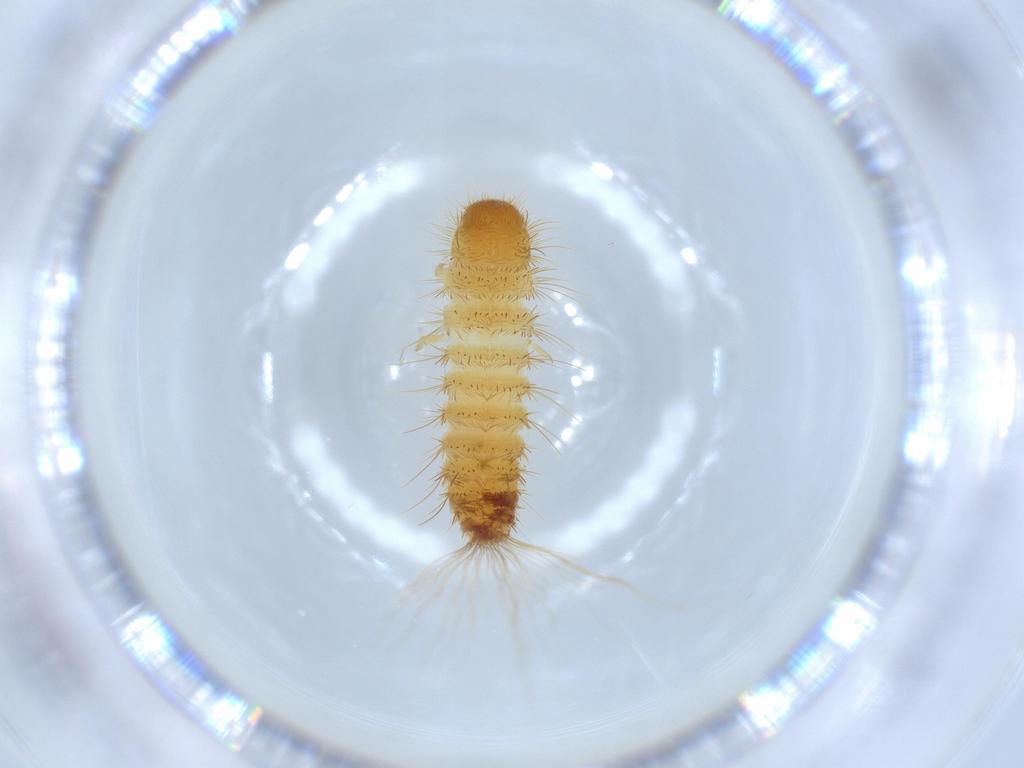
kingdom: Animalia
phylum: Arthropoda
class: Insecta
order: Coleoptera
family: Dermestidae
